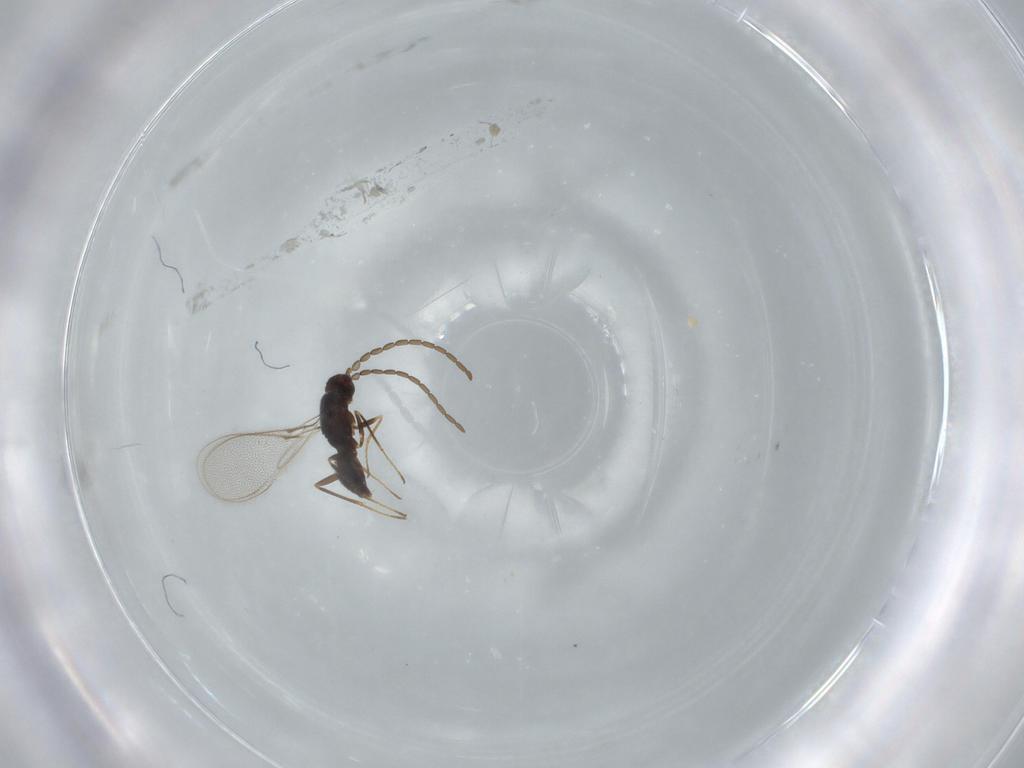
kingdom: Animalia
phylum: Arthropoda
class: Insecta
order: Hymenoptera
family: Mymaridae
